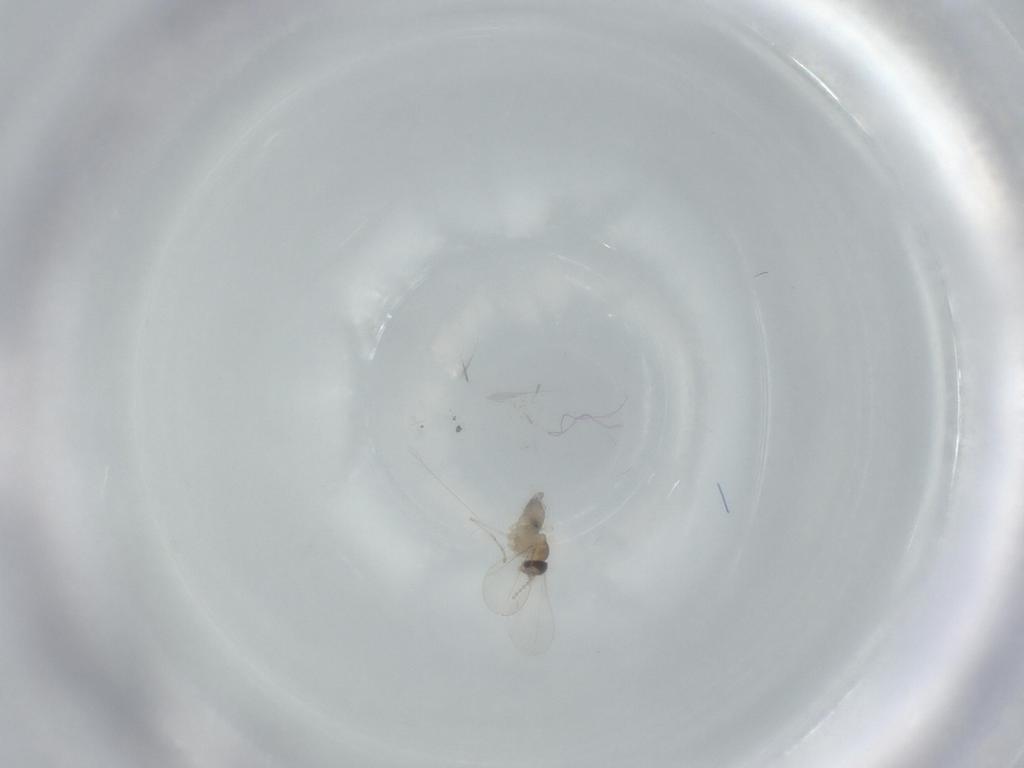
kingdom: Animalia
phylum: Arthropoda
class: Insecta
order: Diptera
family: Cecidomyiidae
